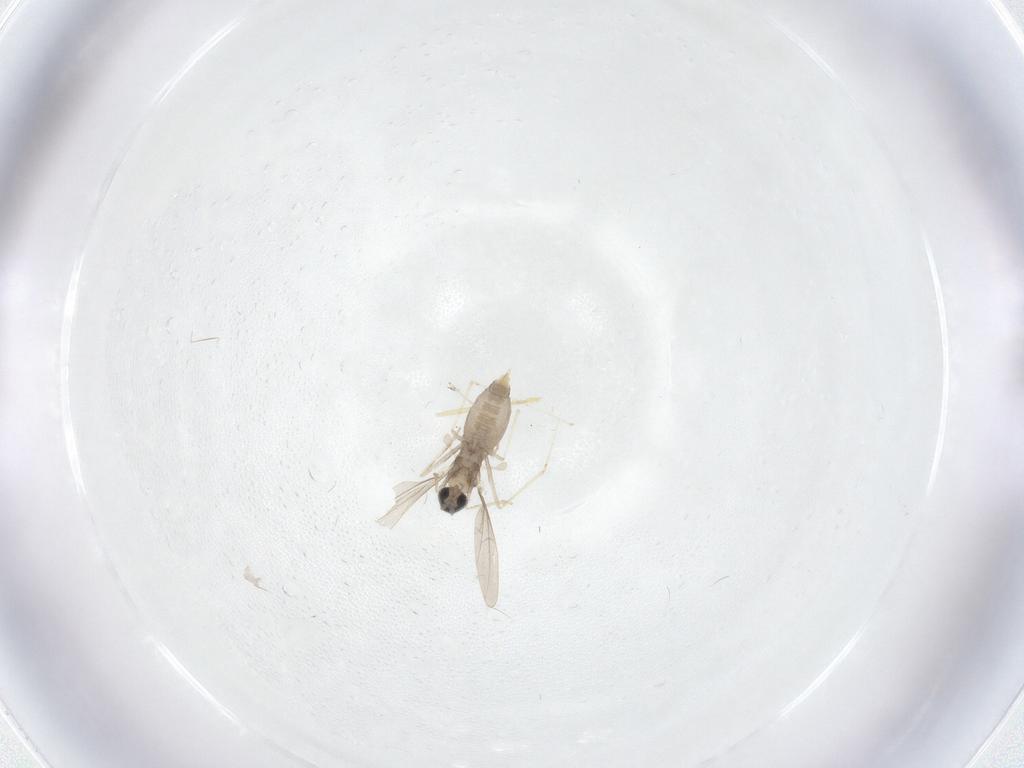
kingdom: Animalia
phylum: Arthropoda
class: Insecta
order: Diptera
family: Cecidomyiidae
